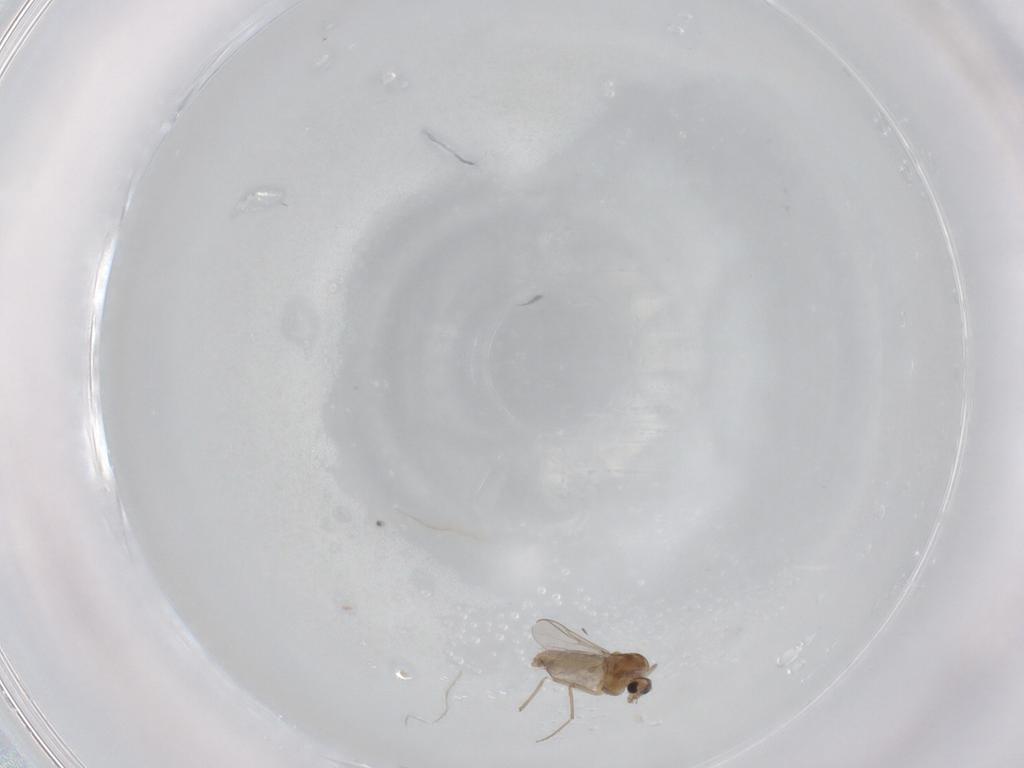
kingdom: Animalia
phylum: Arthropoda
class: Insecta
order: Diptera
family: Chironomidae
